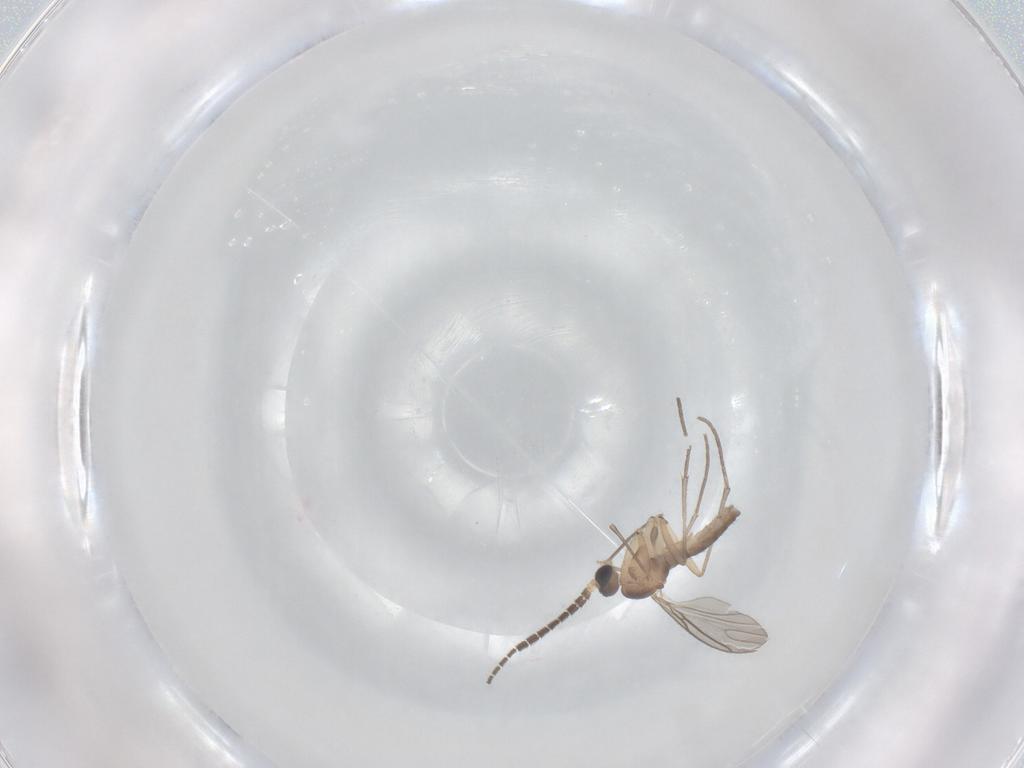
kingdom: Animalia
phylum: Arthropoda
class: Insecta
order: Diptera
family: Sciaridae
